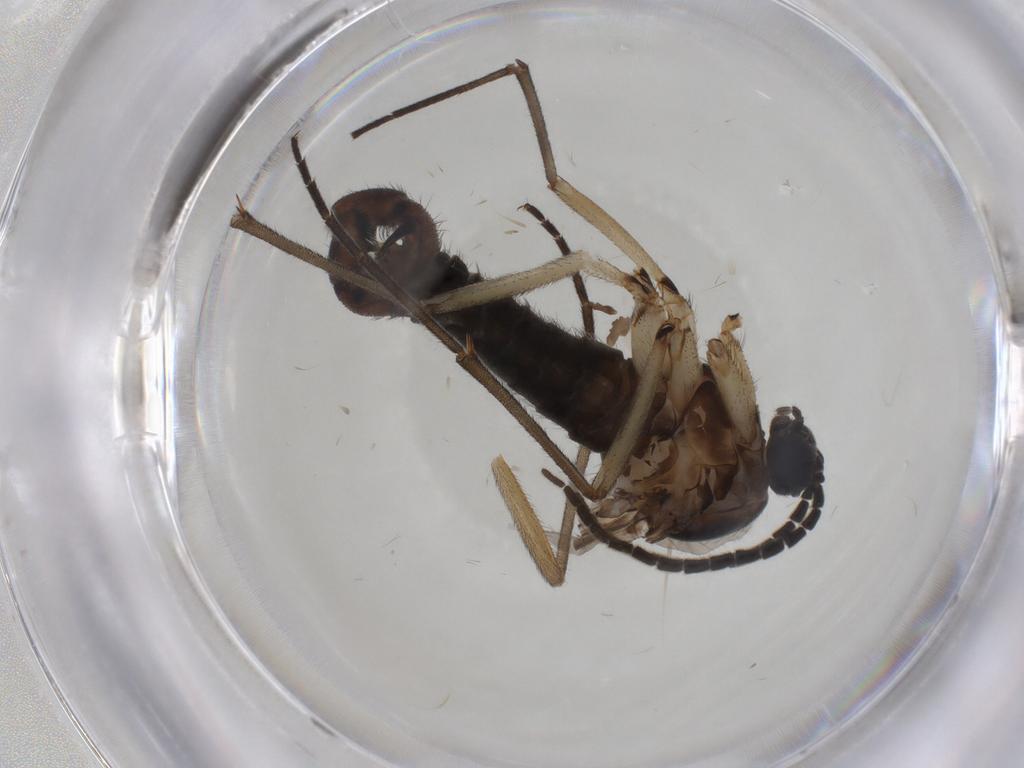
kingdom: Animalia
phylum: Arthropoda
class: Insecta
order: Diptera
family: Sciaridae
